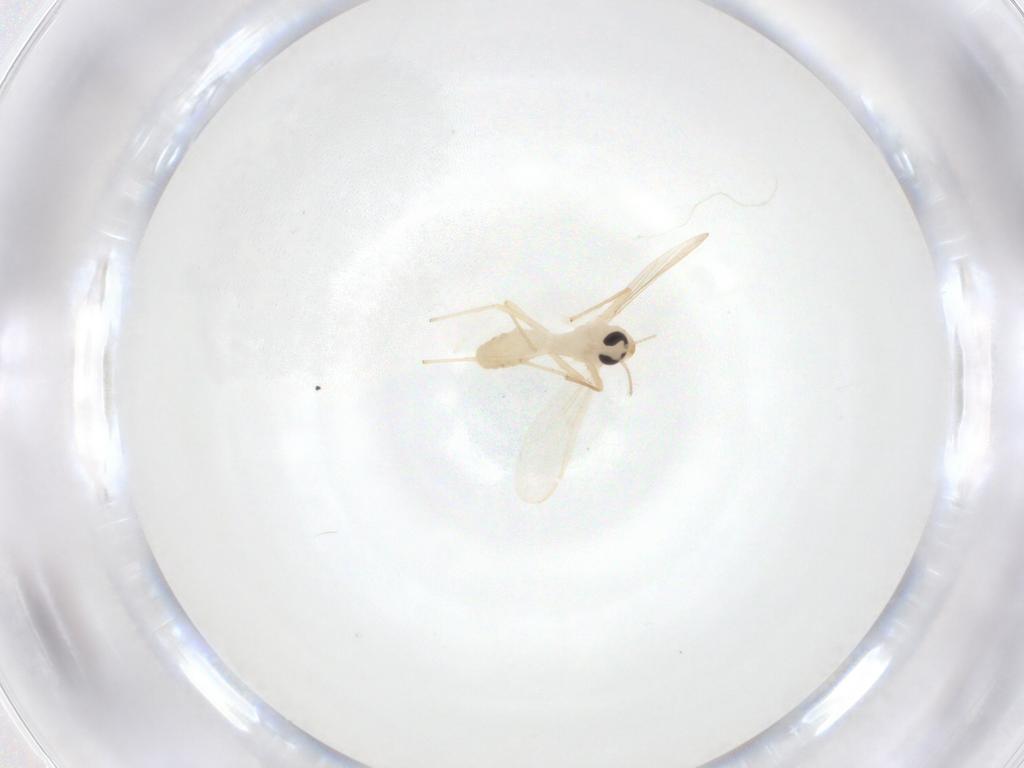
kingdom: Animalia
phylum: Arthropoda
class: Insecta
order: Diptera
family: Chironomidae
